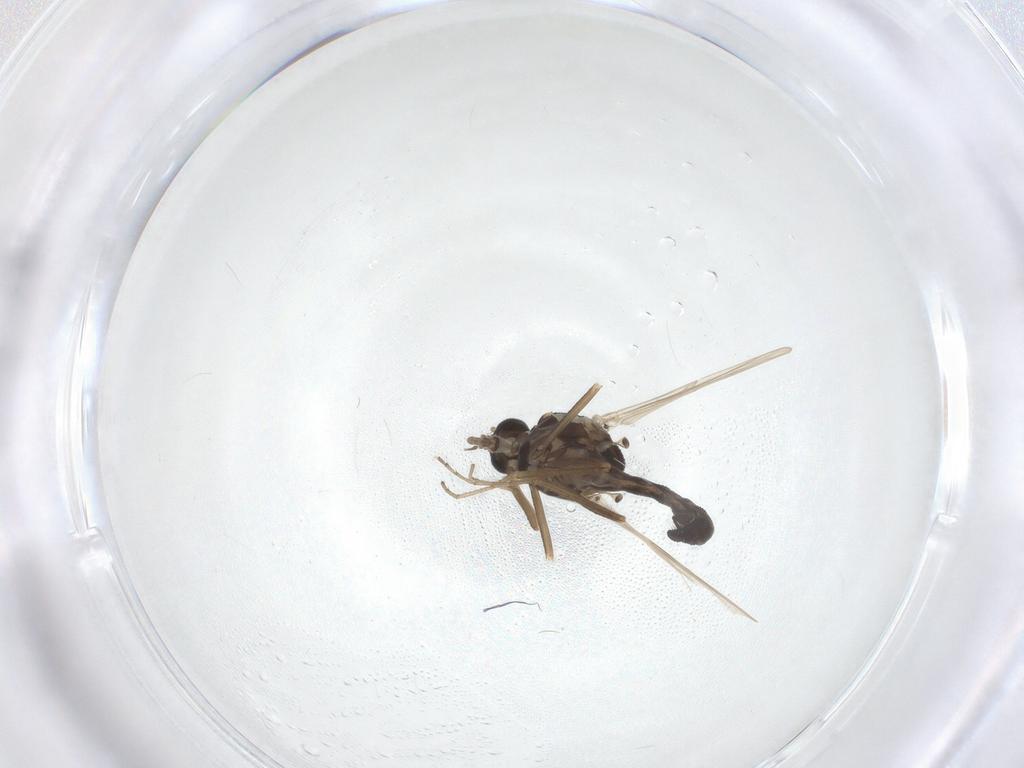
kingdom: Animalia
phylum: Arthropoda
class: Insecta
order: Diptera
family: Ceratopogonidae
